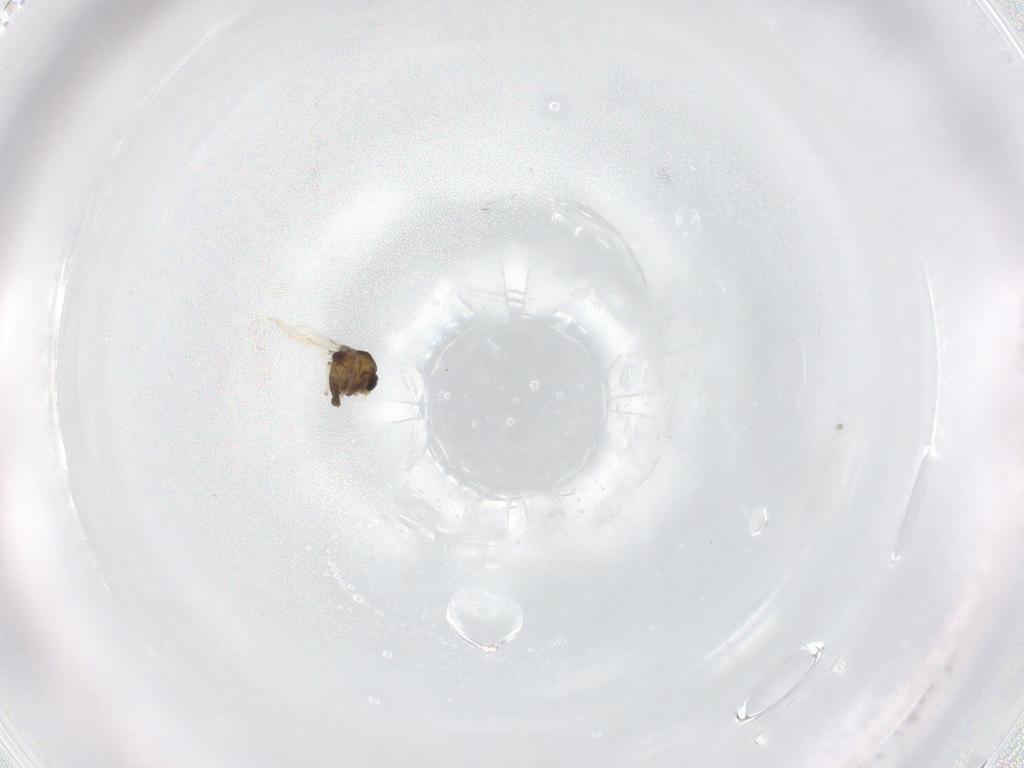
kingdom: Animalia
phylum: Arthropoda
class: Insecta
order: Diptera
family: Chironomidae
